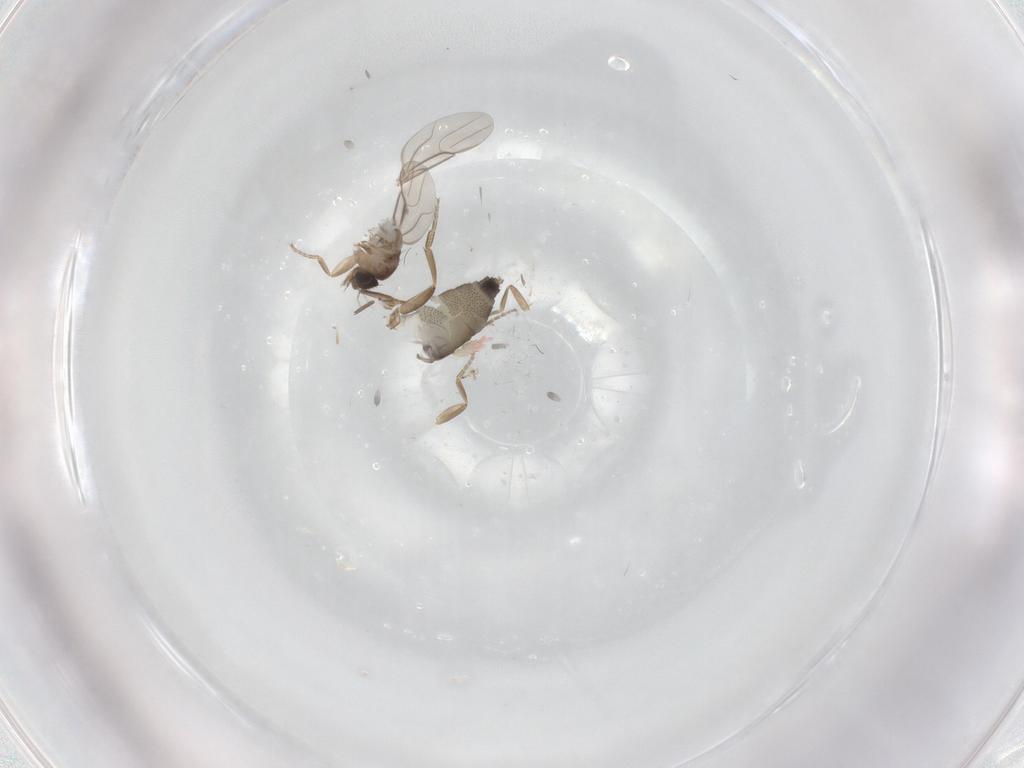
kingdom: Animalia
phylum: Arthropoda
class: Insecta
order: Diptera
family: Phoridae
